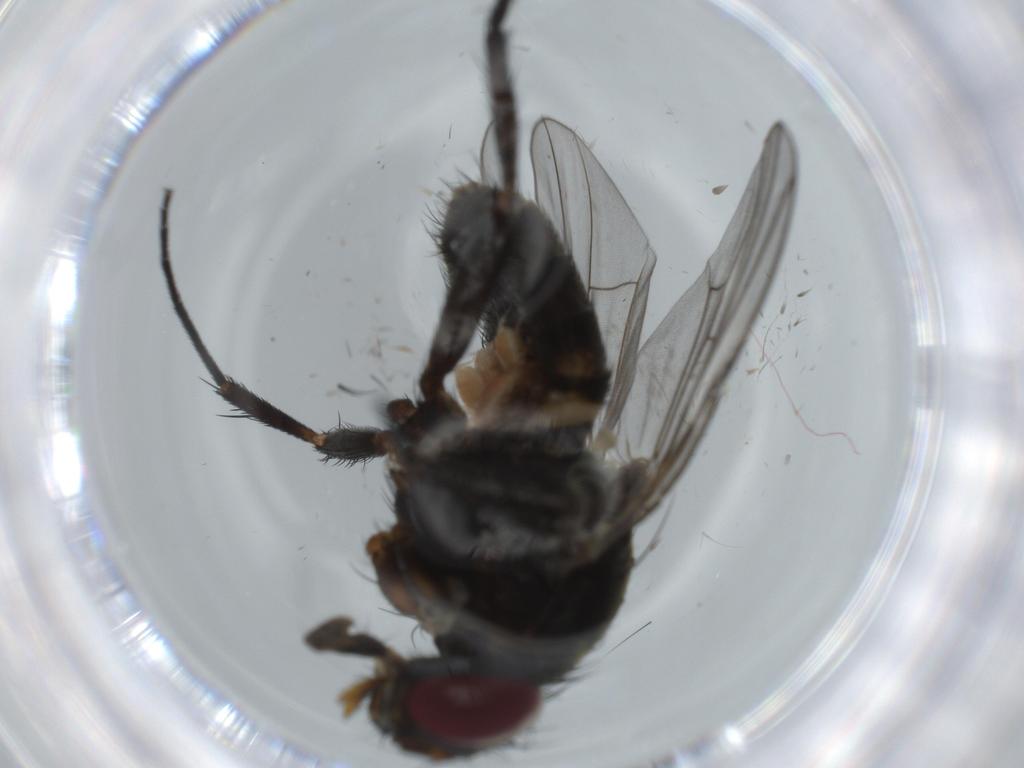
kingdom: Animalia
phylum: Arthropoda
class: Insecta
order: Diptera
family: Fannia
